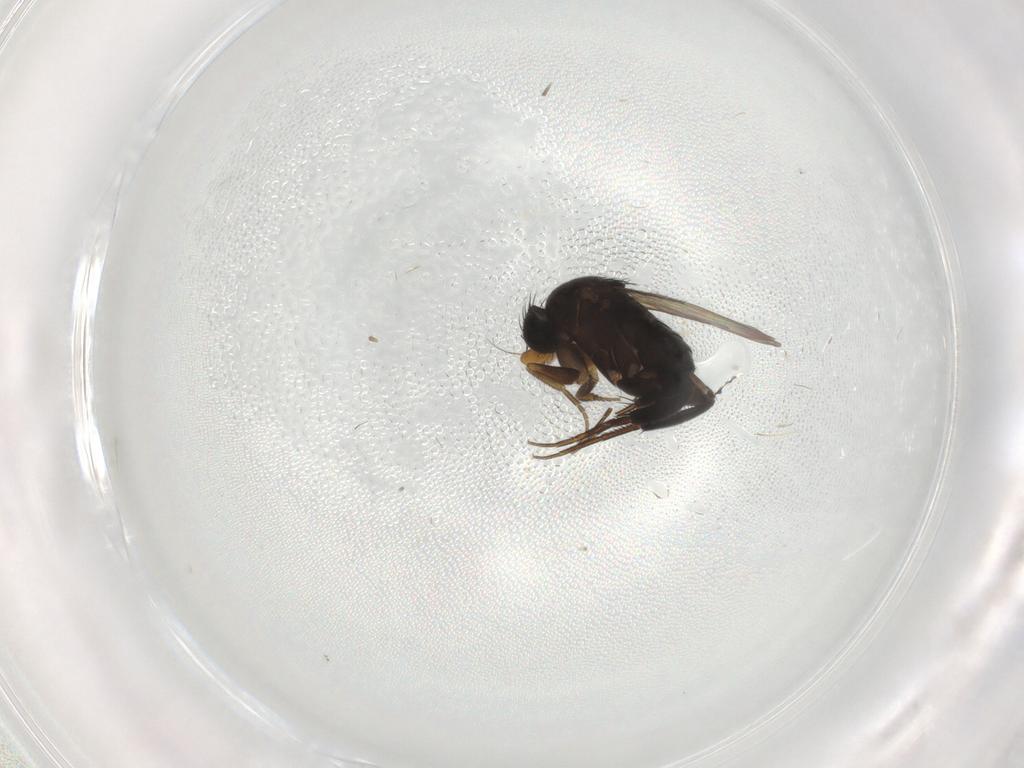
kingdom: Animalia
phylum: Arthropoda
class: Insecta
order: Diptera
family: Phoridae
